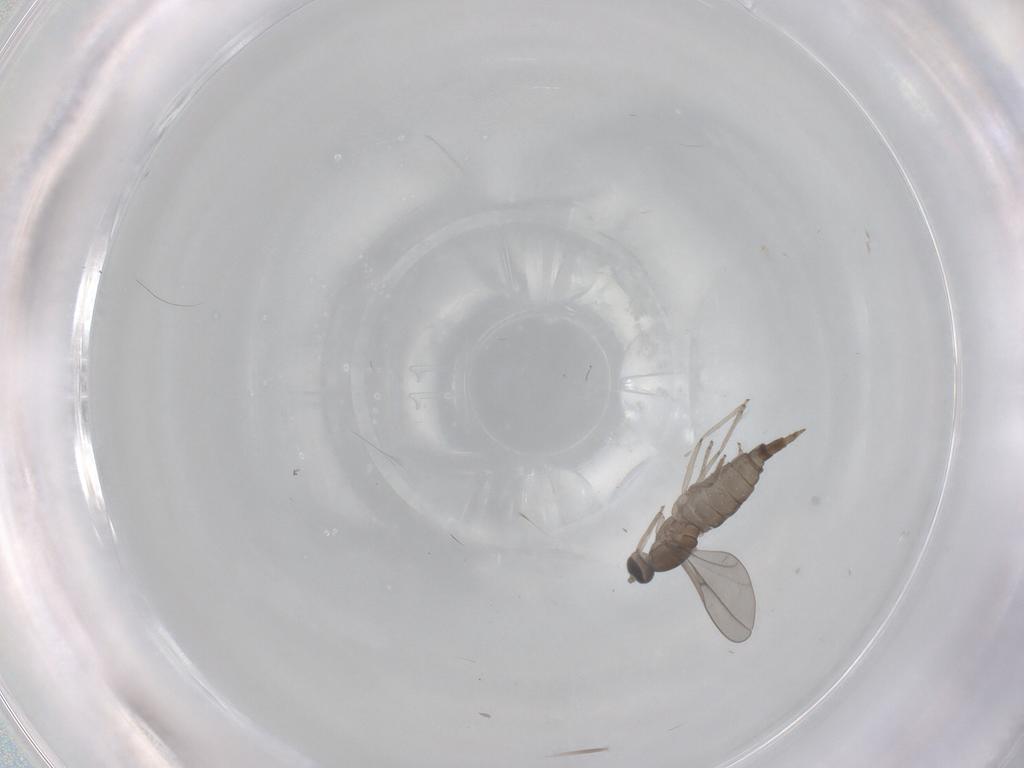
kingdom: Animalia
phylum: Arthropoda
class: Insecta
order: Diptera
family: Cecidomyiidae
